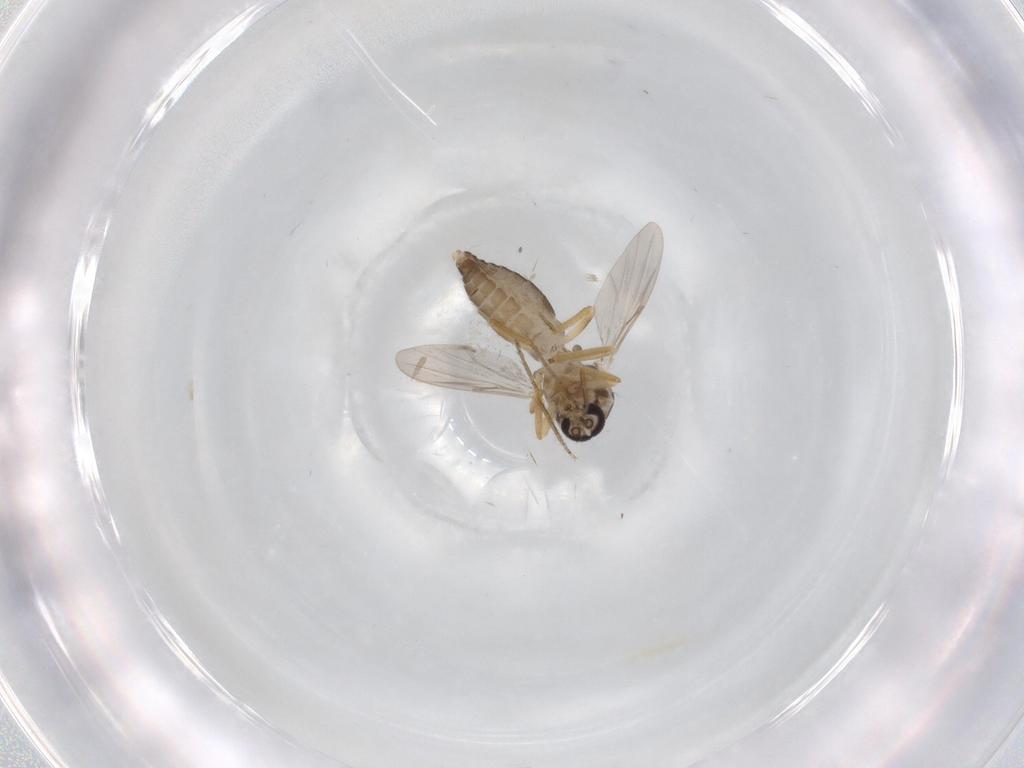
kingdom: Animalia
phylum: Arthropoda
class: Insecta
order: Diptera
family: Ceratopogonidae
